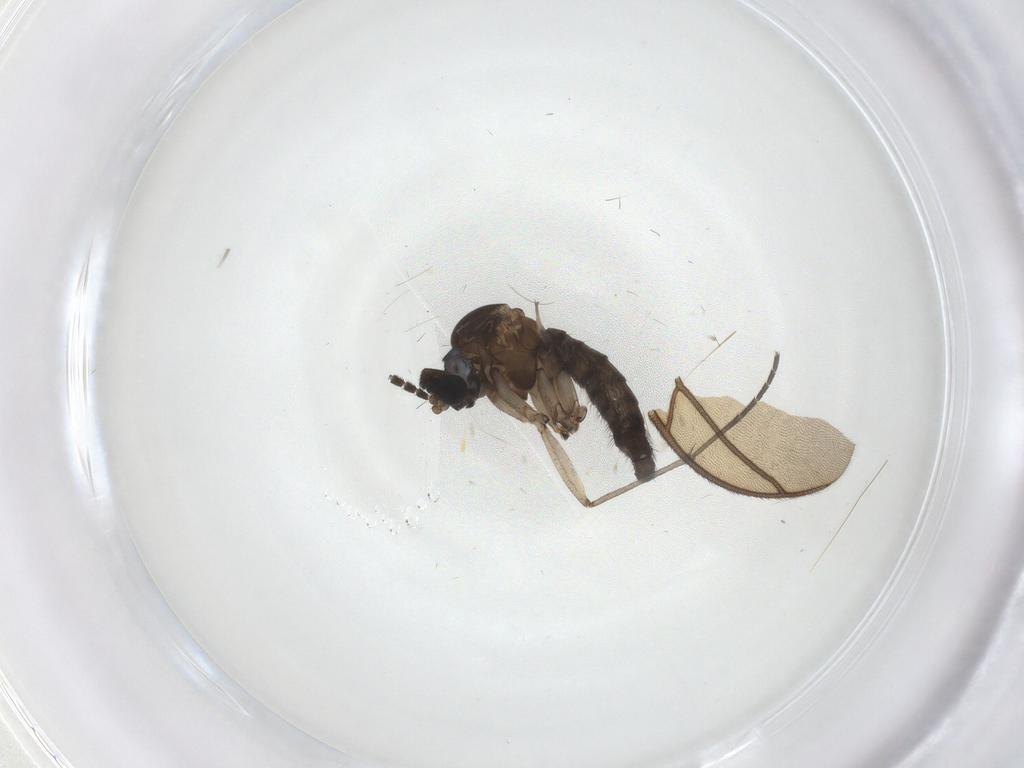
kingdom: Animalia
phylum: Arthropoda
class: Insecta
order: Diptera
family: Sciaridae
